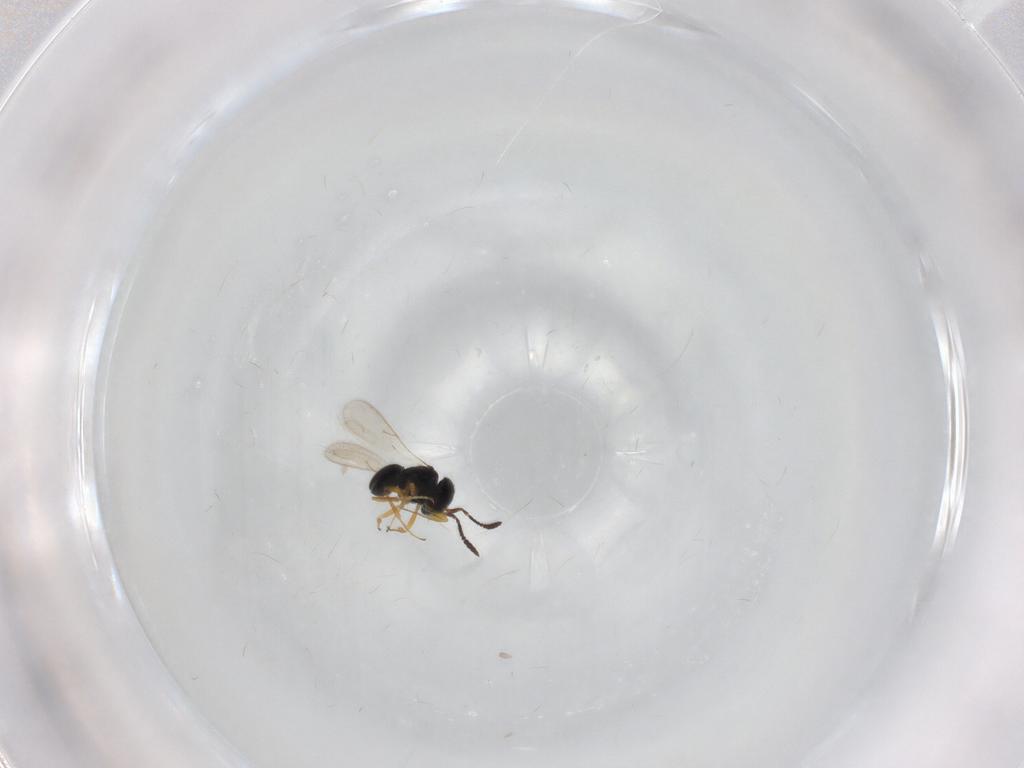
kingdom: Animalia
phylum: Arthropoda
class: Insecta
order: Hymenoptera
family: Scelionidae
